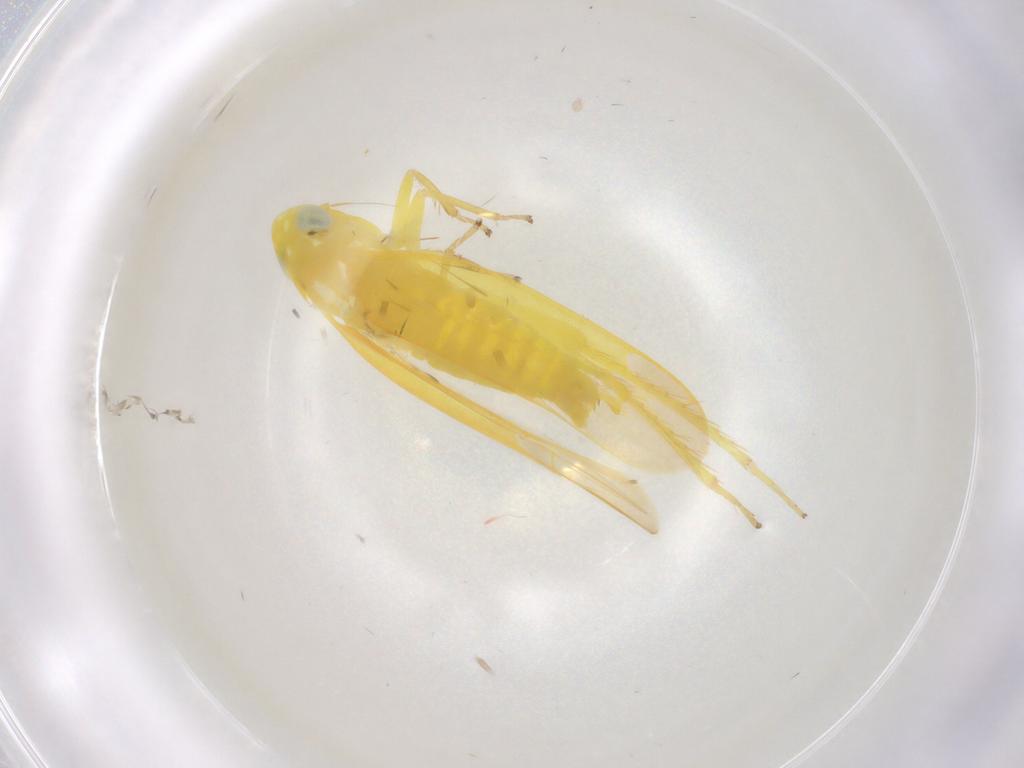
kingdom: Animalia
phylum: Arthropoda
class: Insecta
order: Hemiptera
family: Cicadellidae
